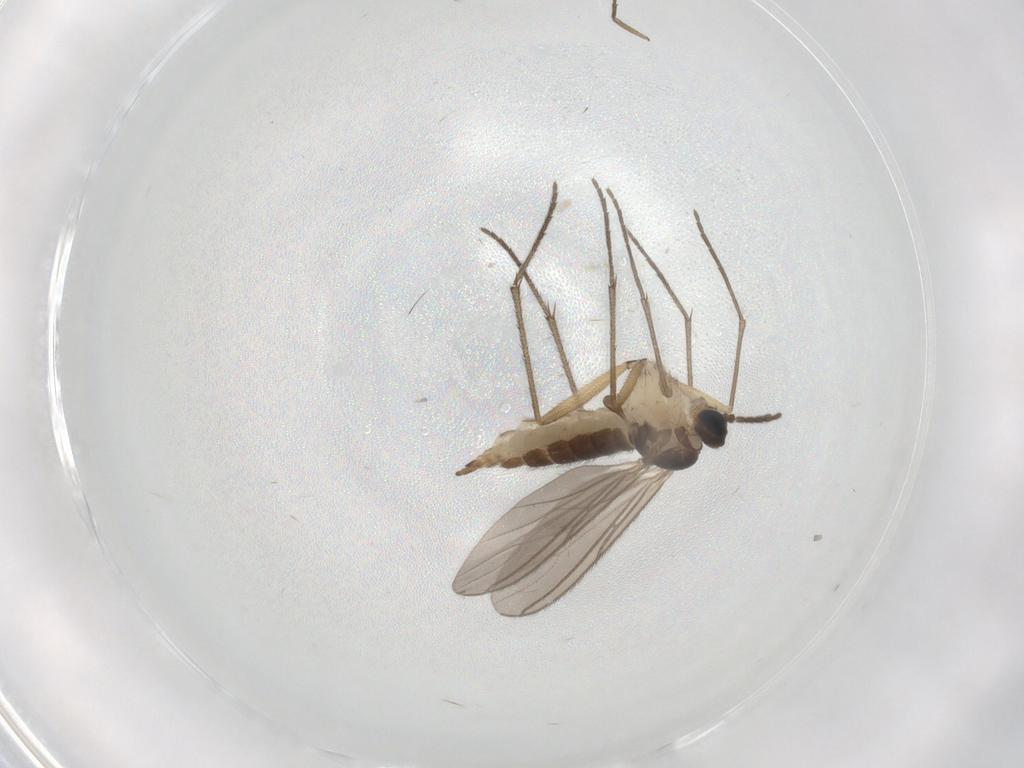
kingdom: Animalia
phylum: Arthropoda
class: Insecta
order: Diptera
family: Sciaridae
